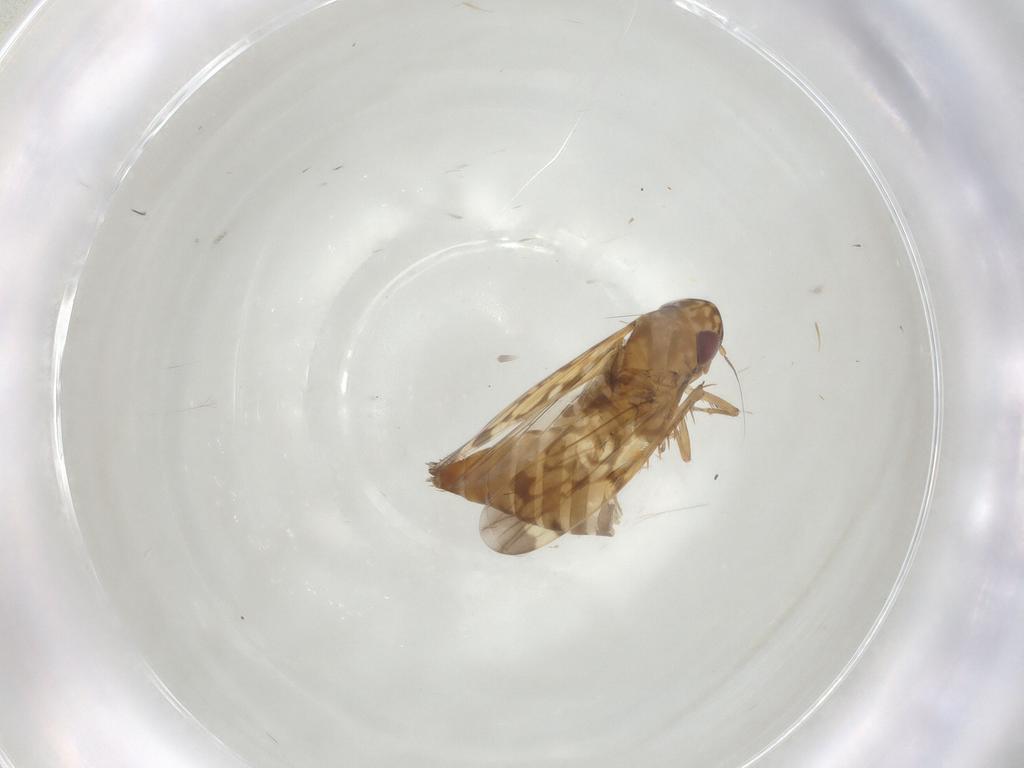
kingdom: Animalia
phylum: Arthropoda
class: Insecta
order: Hemiptera
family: Cicadellidae
